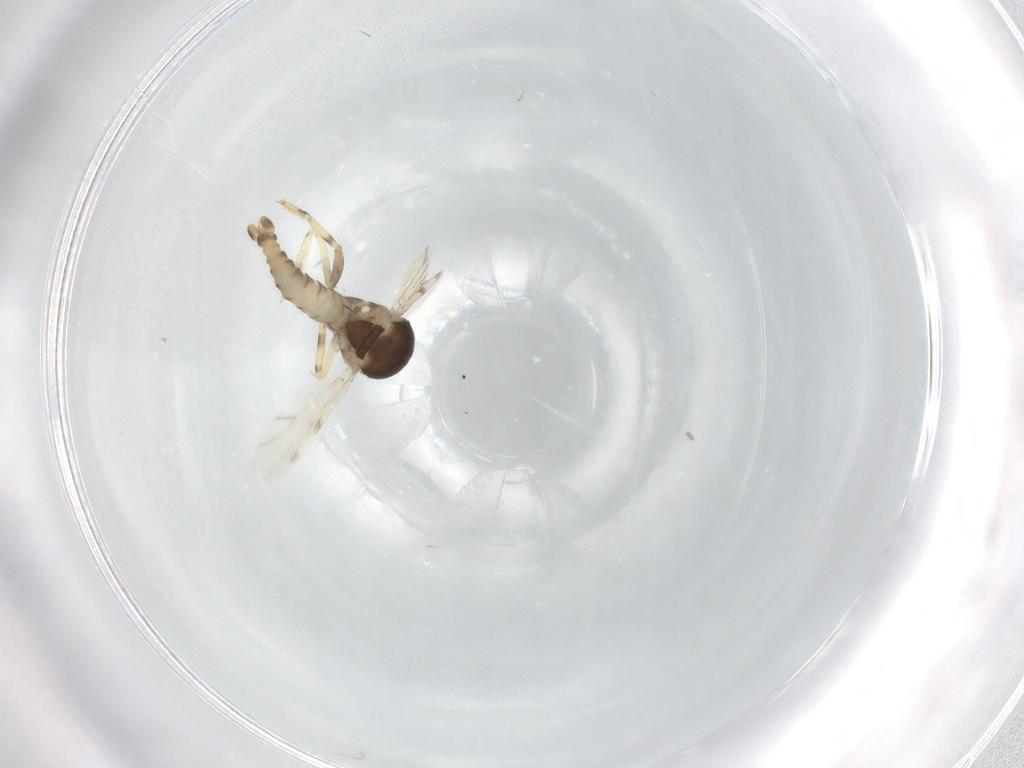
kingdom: Animalia
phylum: Arthropoda
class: Insecta
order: Diptera
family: Ceratopogonidae
